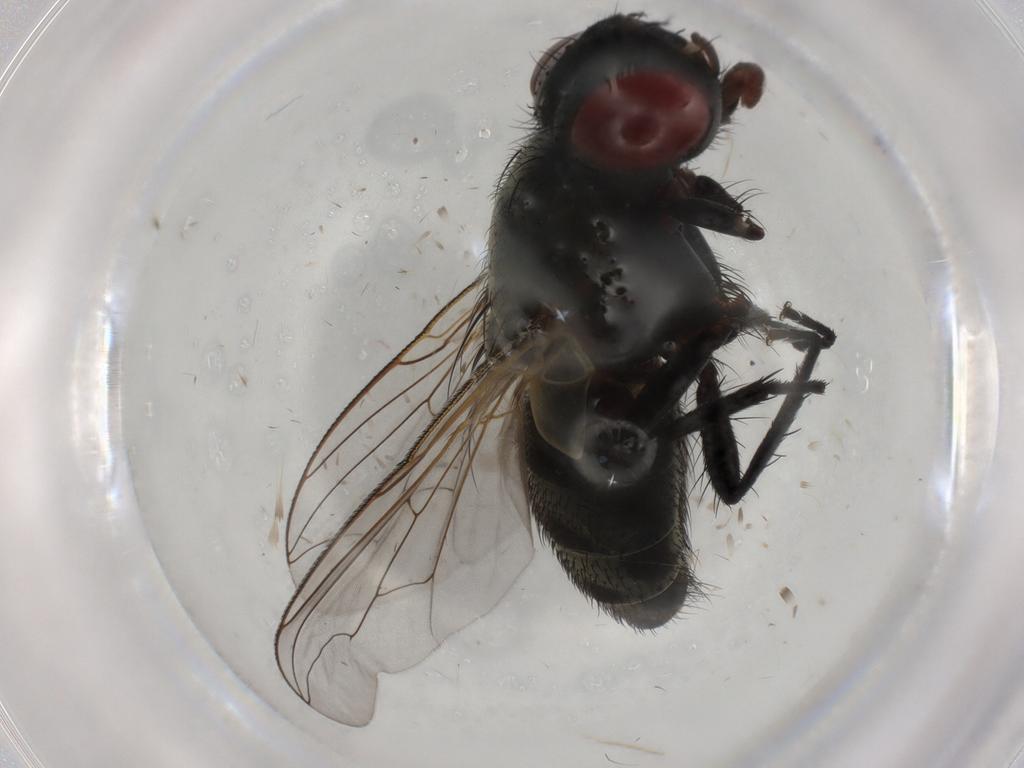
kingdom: Animalia
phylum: Arthropoda
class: Insecta
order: Diptera
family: Sarcophagidae
